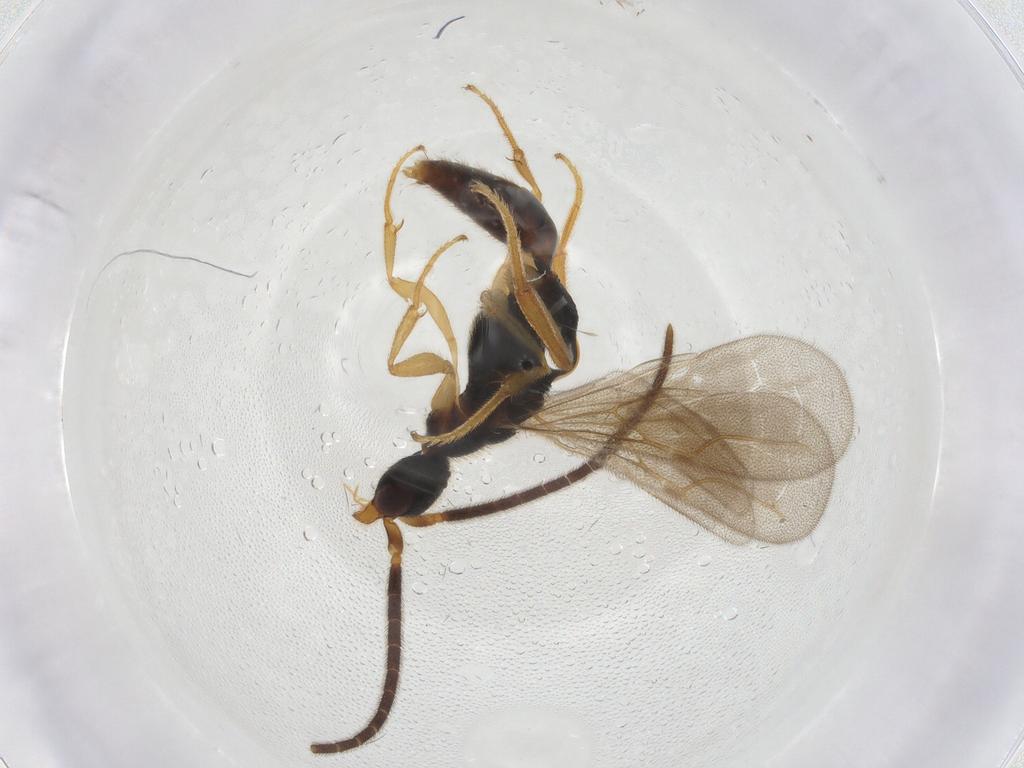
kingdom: Animalia
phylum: Arthropoda
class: Insecta
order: Hymenoptera
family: Bethylidae
